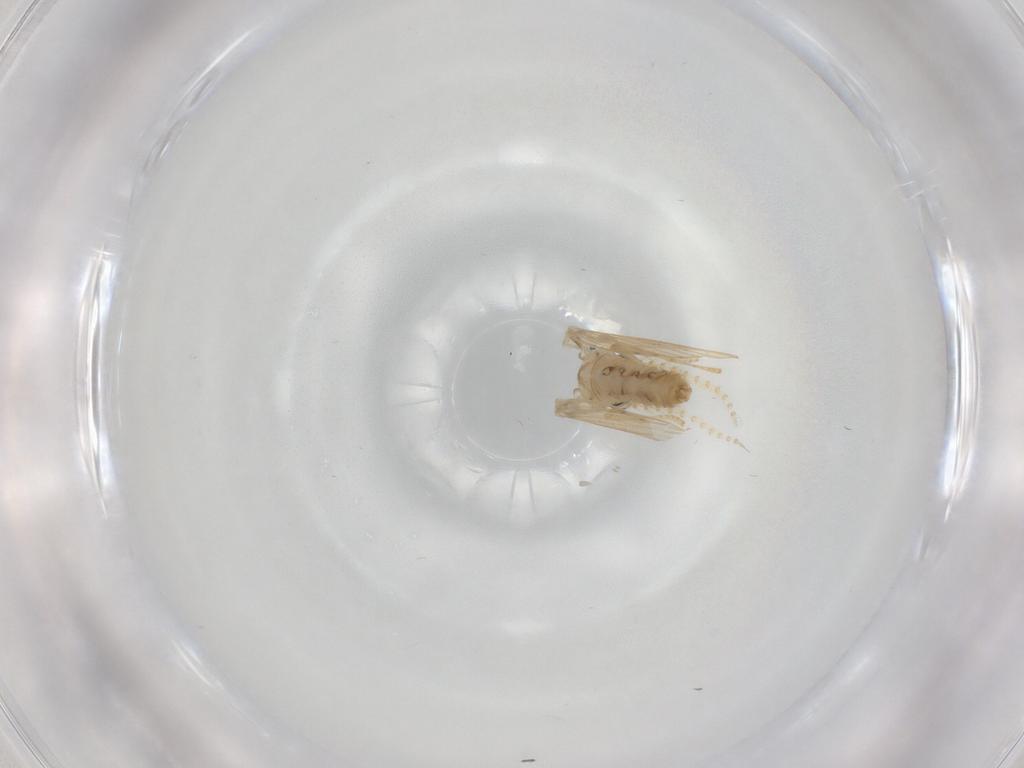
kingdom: Animalia
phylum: Arthropoda
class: Insecta
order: Diptera
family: Psychodidae
